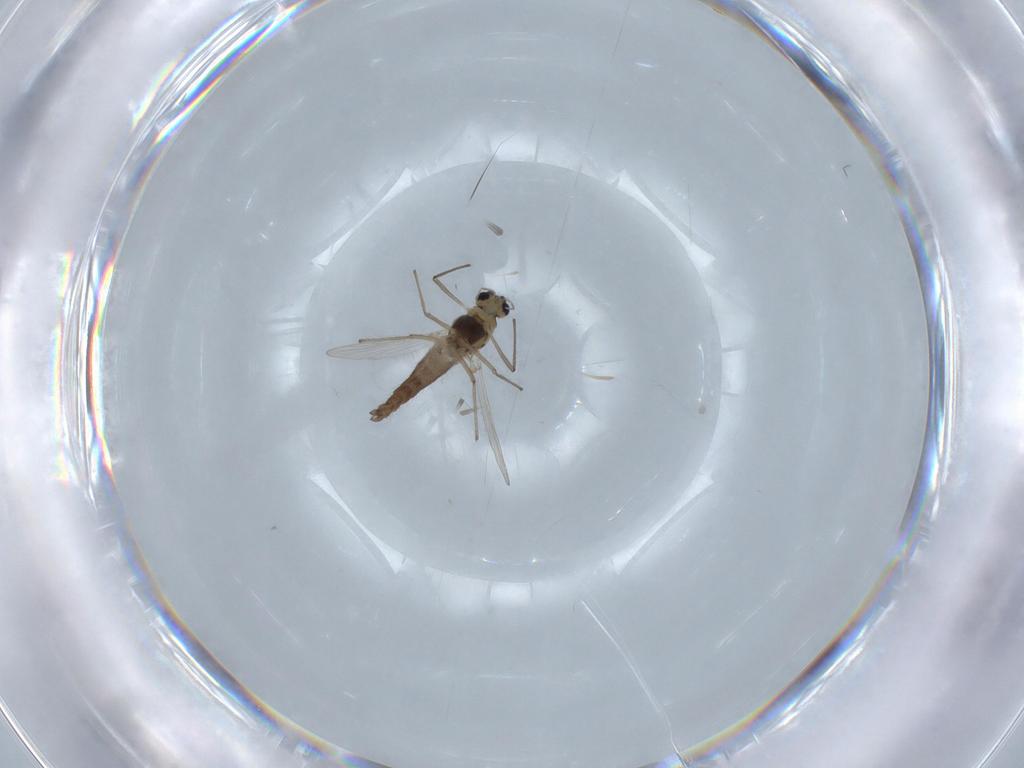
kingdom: Animalia
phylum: Arthropoda
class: Insecta
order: Diptera
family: Chironomidae
